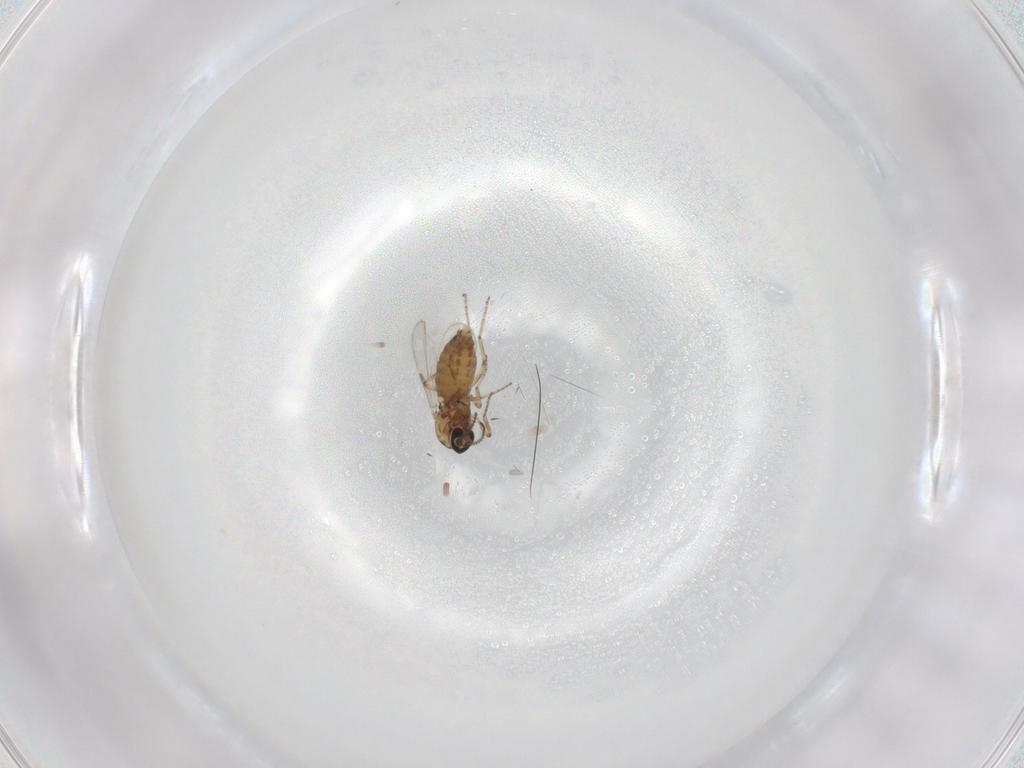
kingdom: Animalia
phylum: Arthropoda
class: Insecta
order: Diptera
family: Ceratopogonidae
